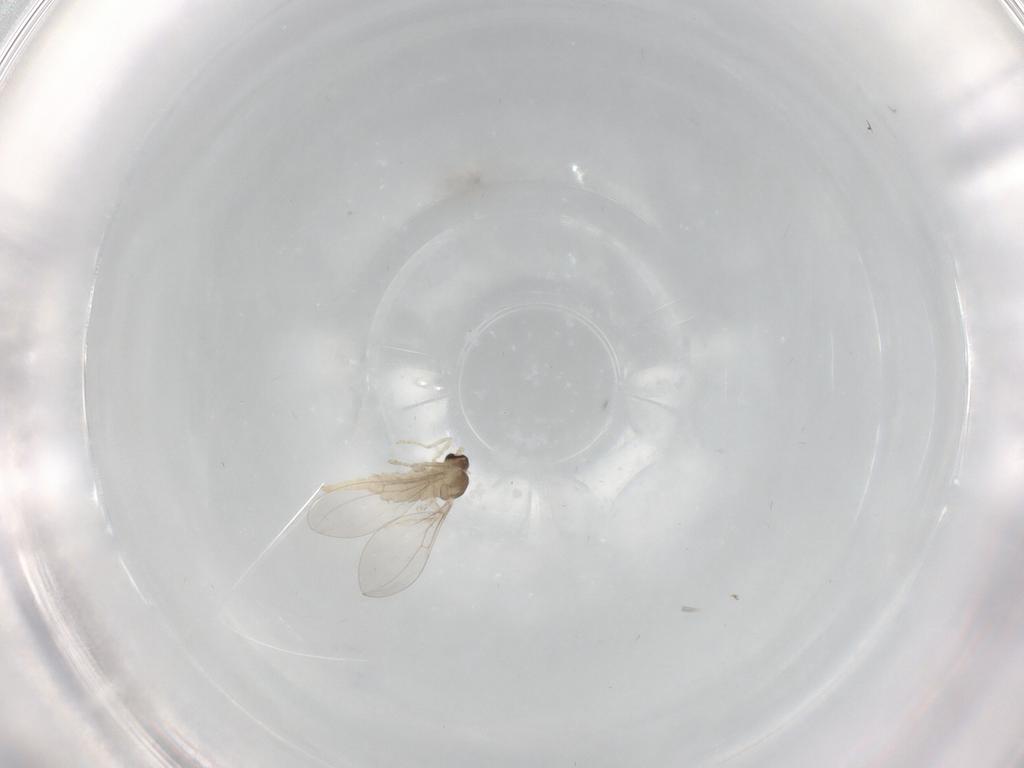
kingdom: Animalia
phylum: Arthropoda
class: Insecta
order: Diptera
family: Cecidomyiidae
